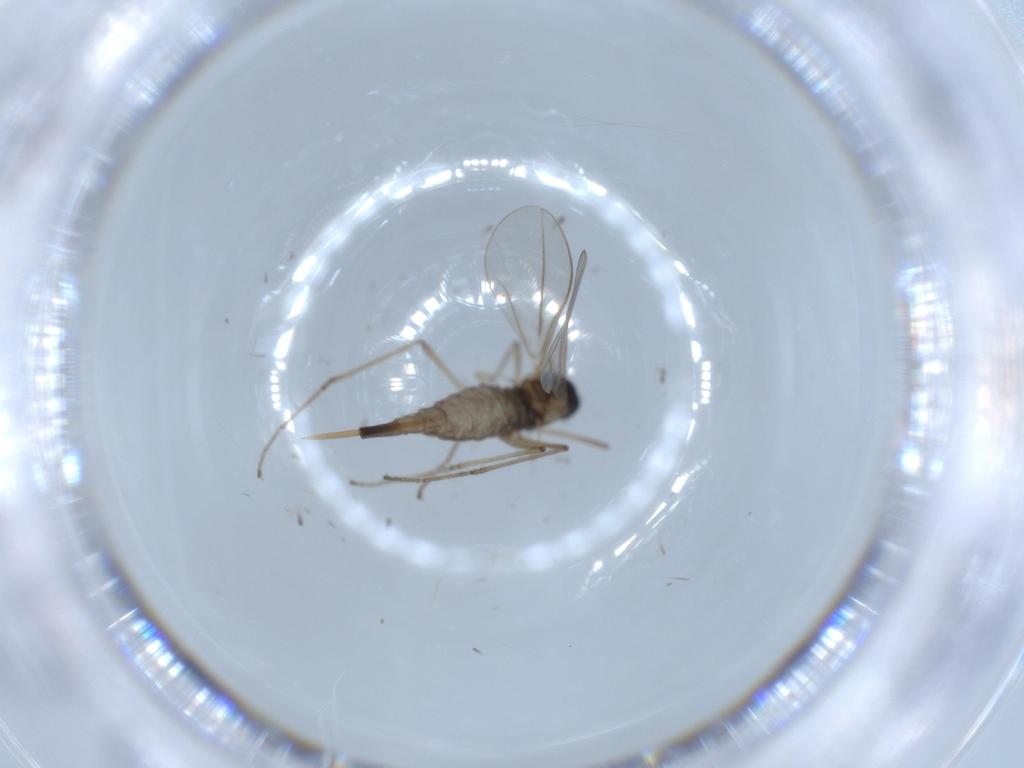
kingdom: Animalia
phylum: Arthropoda
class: Insecta
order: Diptera
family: Cecidomyiidae
